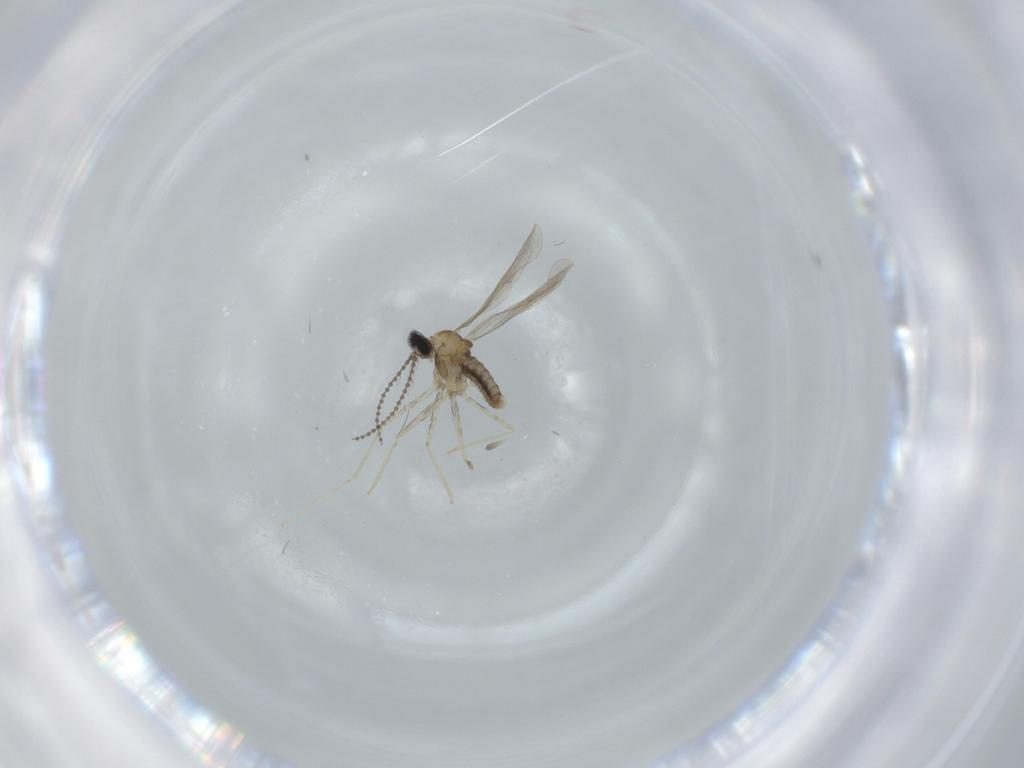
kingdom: Animalia
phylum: Arthropoda
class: Insecta
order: Diptera
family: Cecidomyiidae
